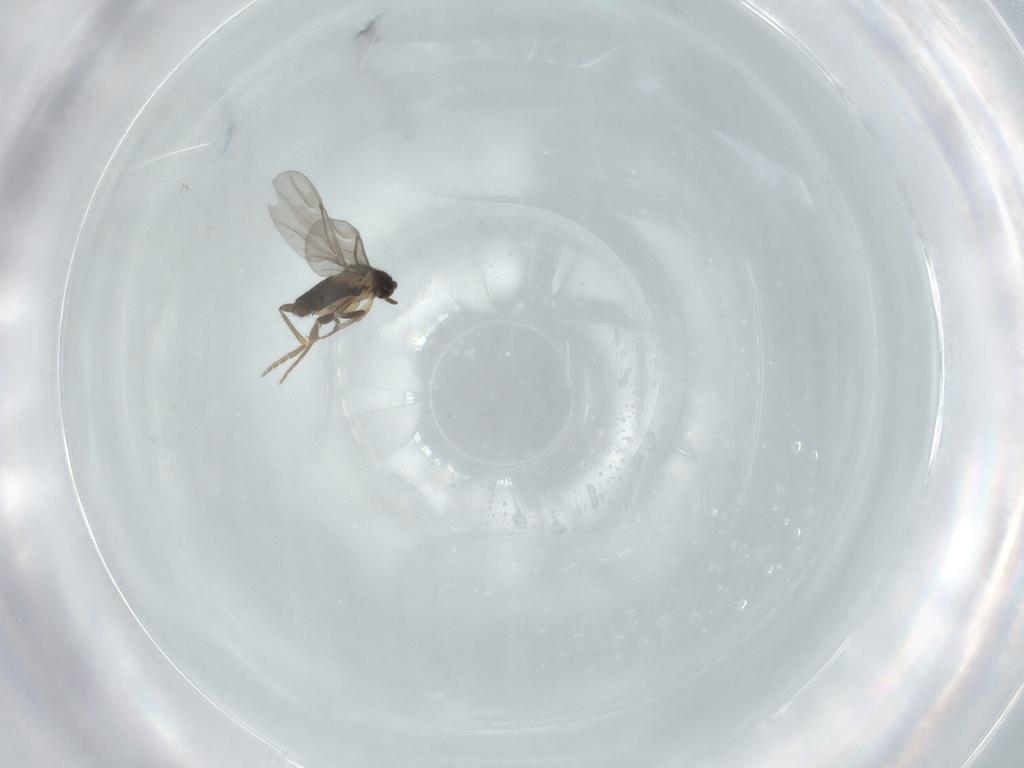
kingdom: Animalia
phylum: Arthropoda
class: Insecta
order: Diptera
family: Chironomidae
